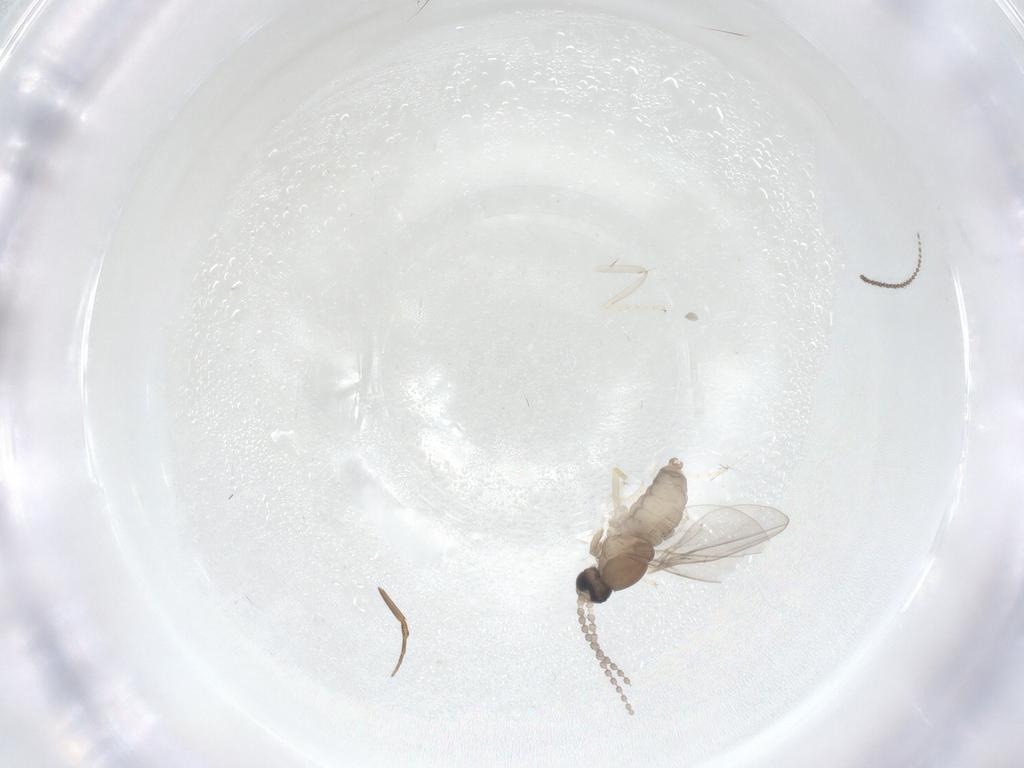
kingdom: Animalia
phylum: Arthropoda
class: Insecta
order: Diptera
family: Cecidomyiidae
